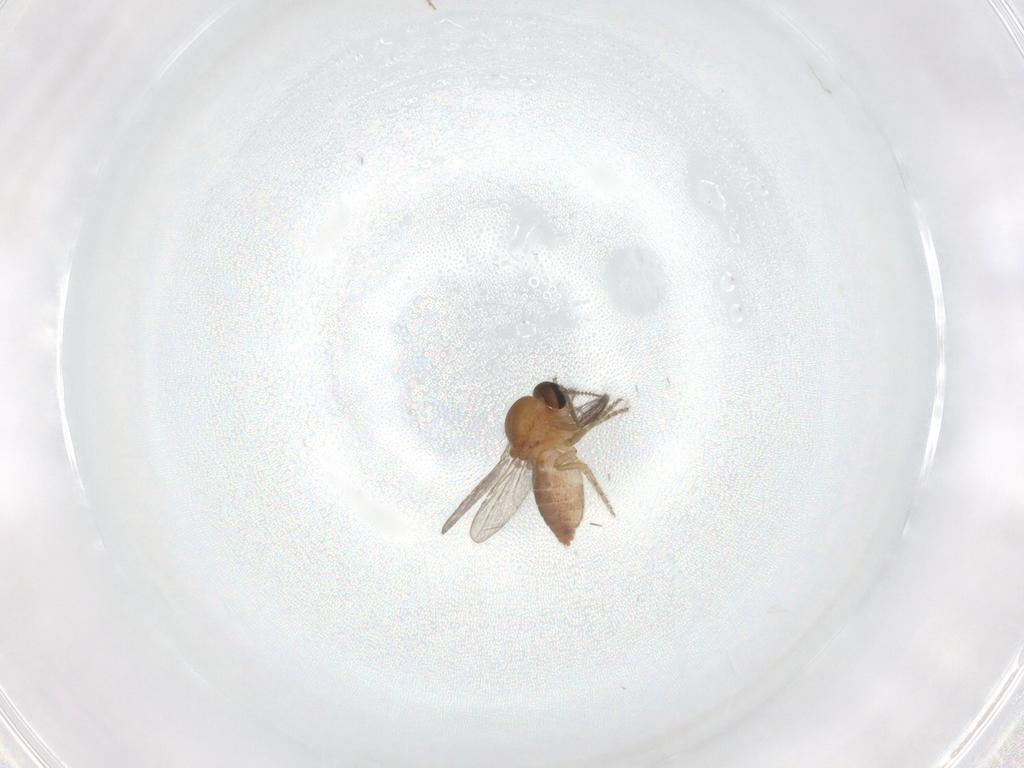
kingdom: Animalia
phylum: Arthropoda
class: Insecta
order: Diptera
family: Ceratopogonidae
